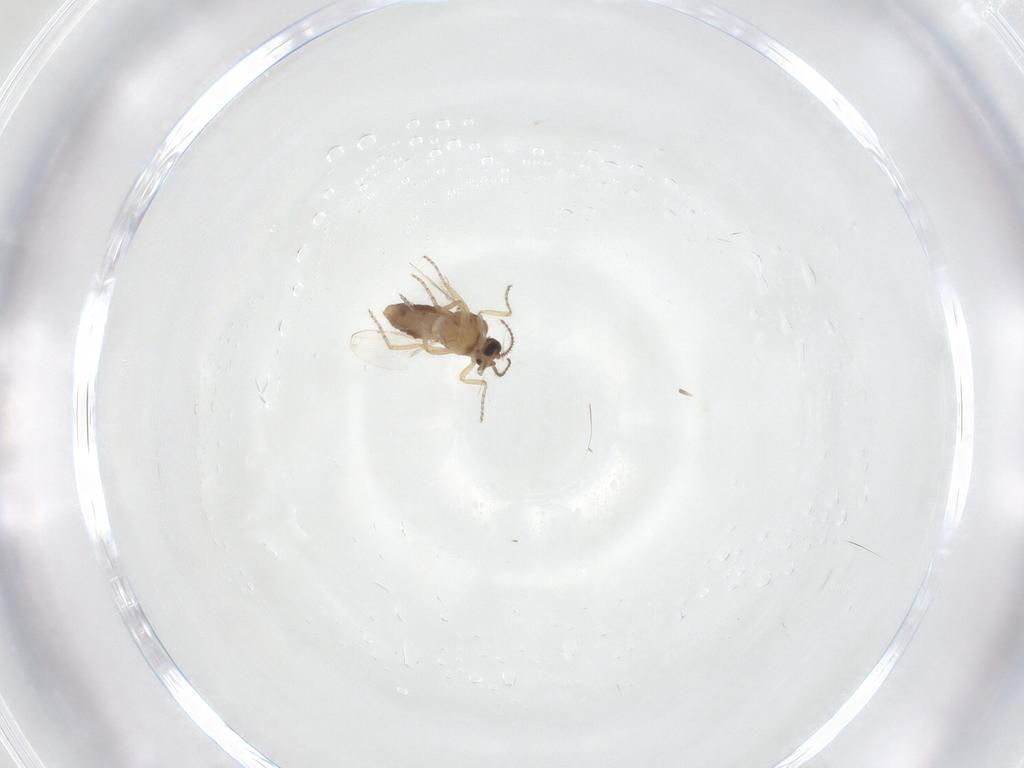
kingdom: Animalia
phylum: Arthropoda
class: Insecta
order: Diptera
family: Ceratopogonidae
